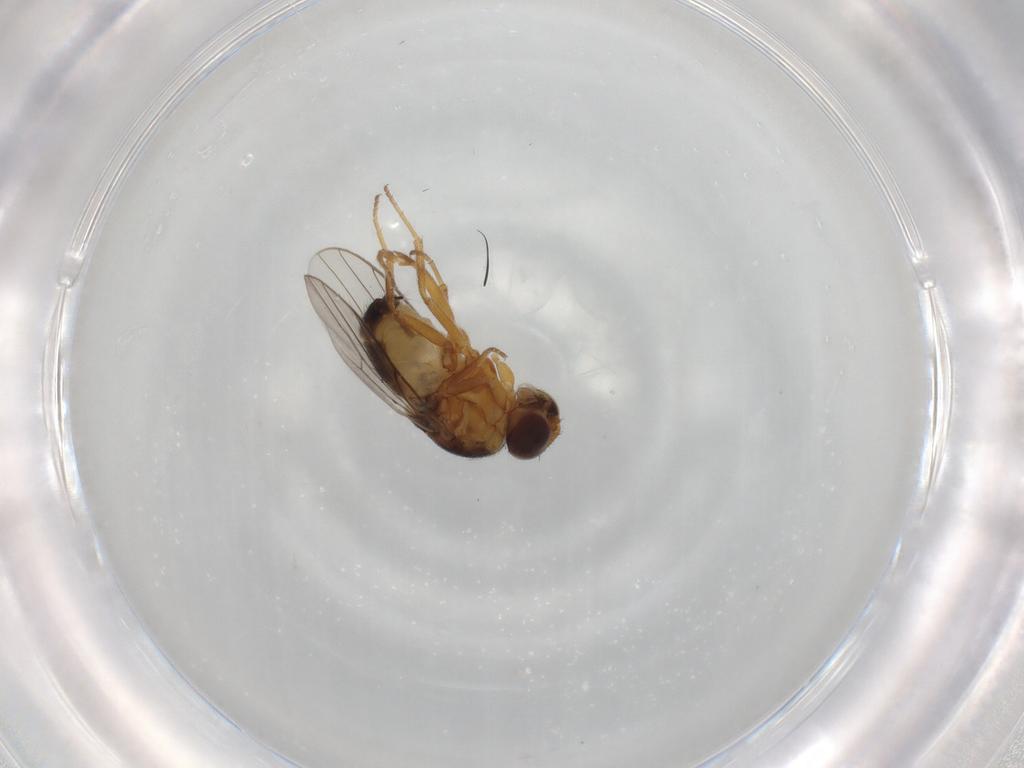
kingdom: Animalia
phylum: Arthropoda
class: Insecta
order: Diptera
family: Chloropidae
